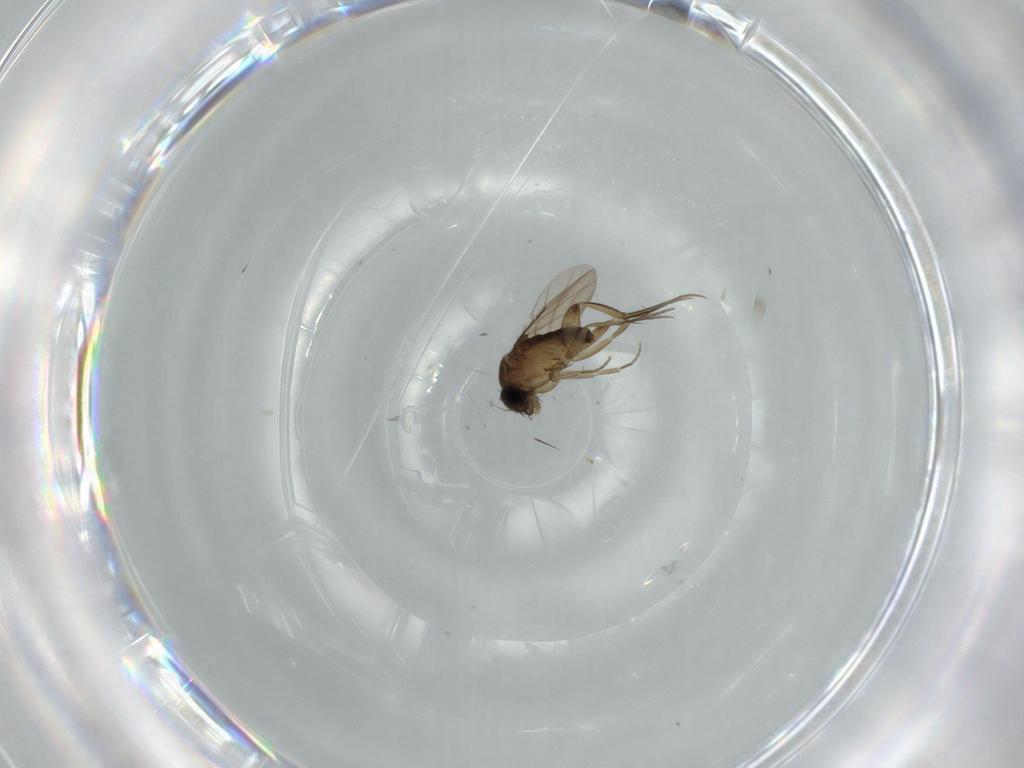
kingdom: Animalia
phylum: Arthropoda
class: Insecta
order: Diptera
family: Phoridae
